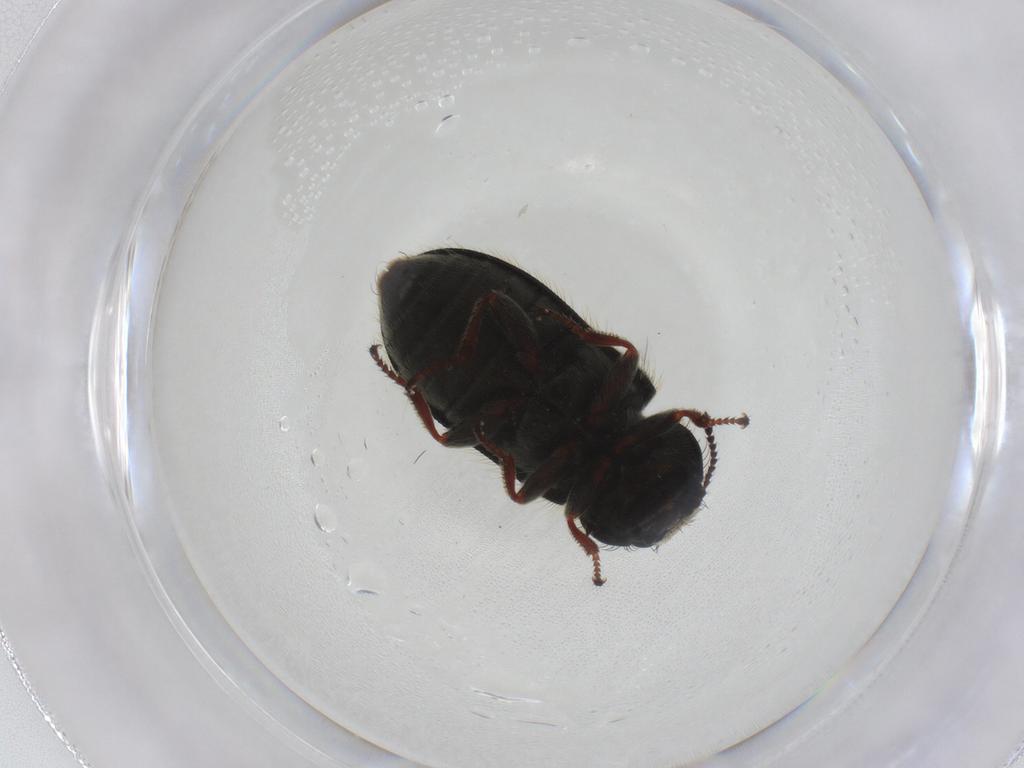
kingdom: Animalia
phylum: Arthropoda
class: Insecta
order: Coleoptera
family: Melyridae
